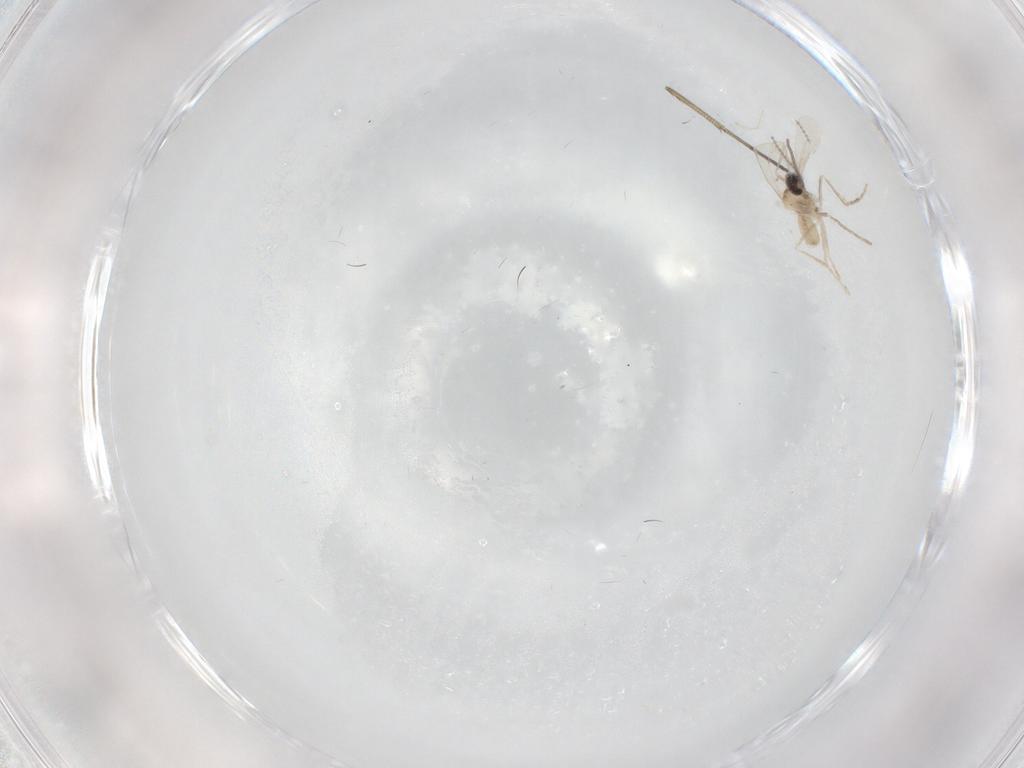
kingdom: Animalia
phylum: Arthropoda
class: Insecta
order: Diptera
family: Cecidomyiidae
